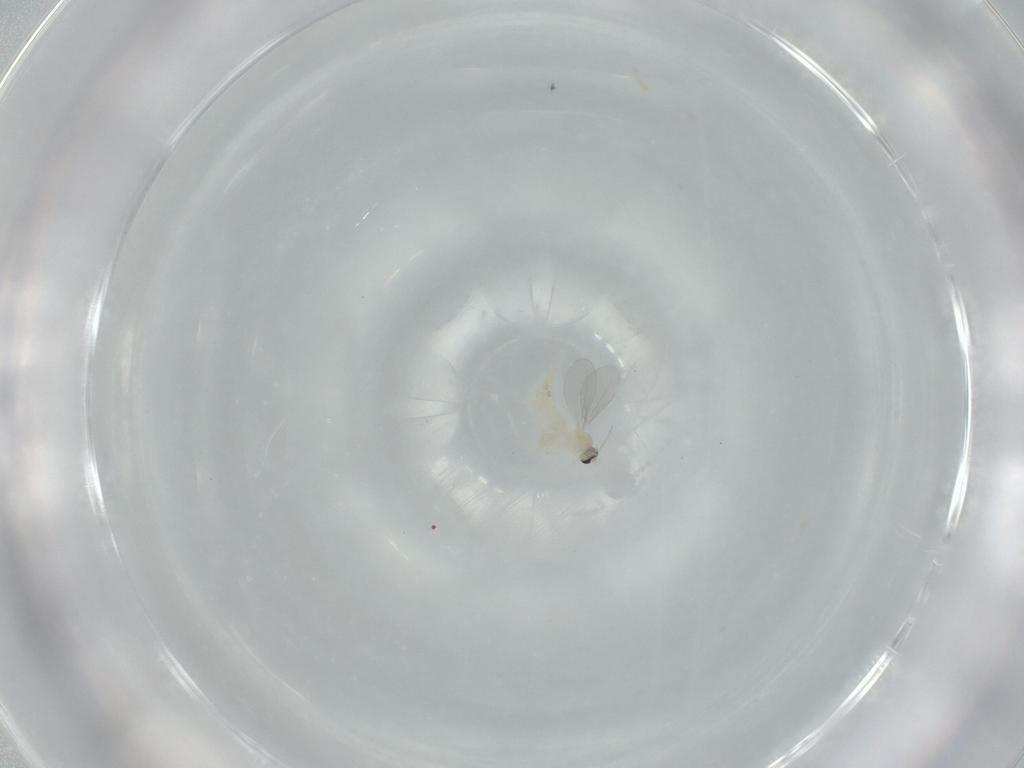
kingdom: Animalia
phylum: Arthropoda
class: Insecta
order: Diptera
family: Cecidomyiidae
